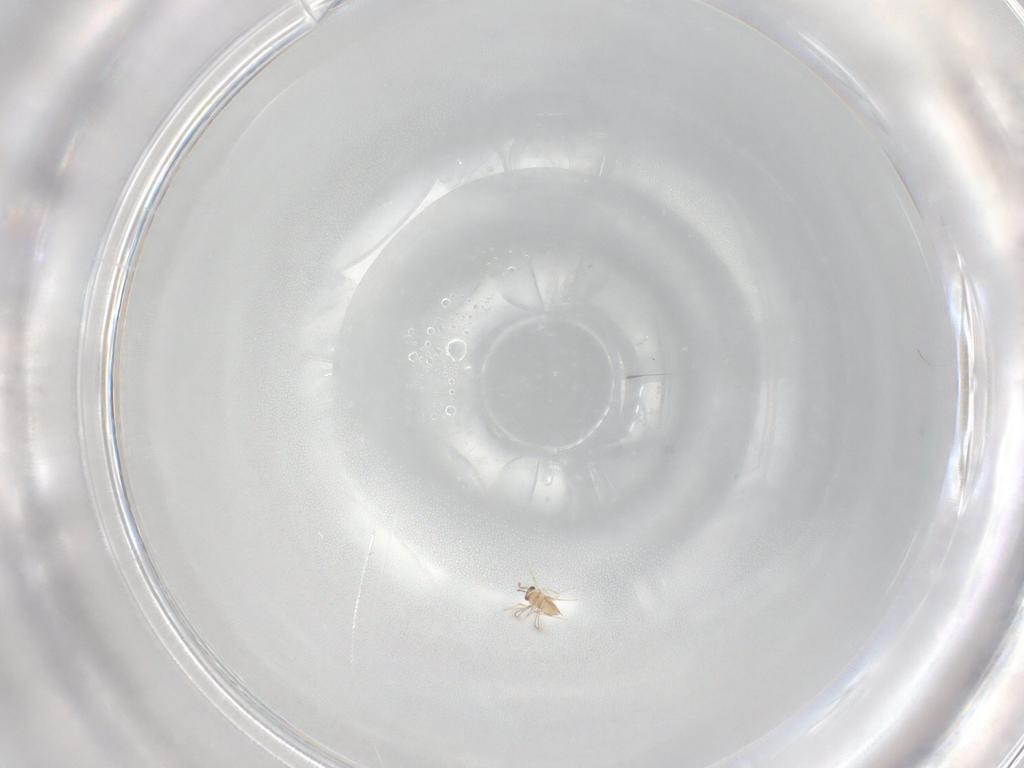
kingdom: Animalia
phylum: Arthropoda
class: Insecta
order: Hymenoptera
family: Mymaridae
